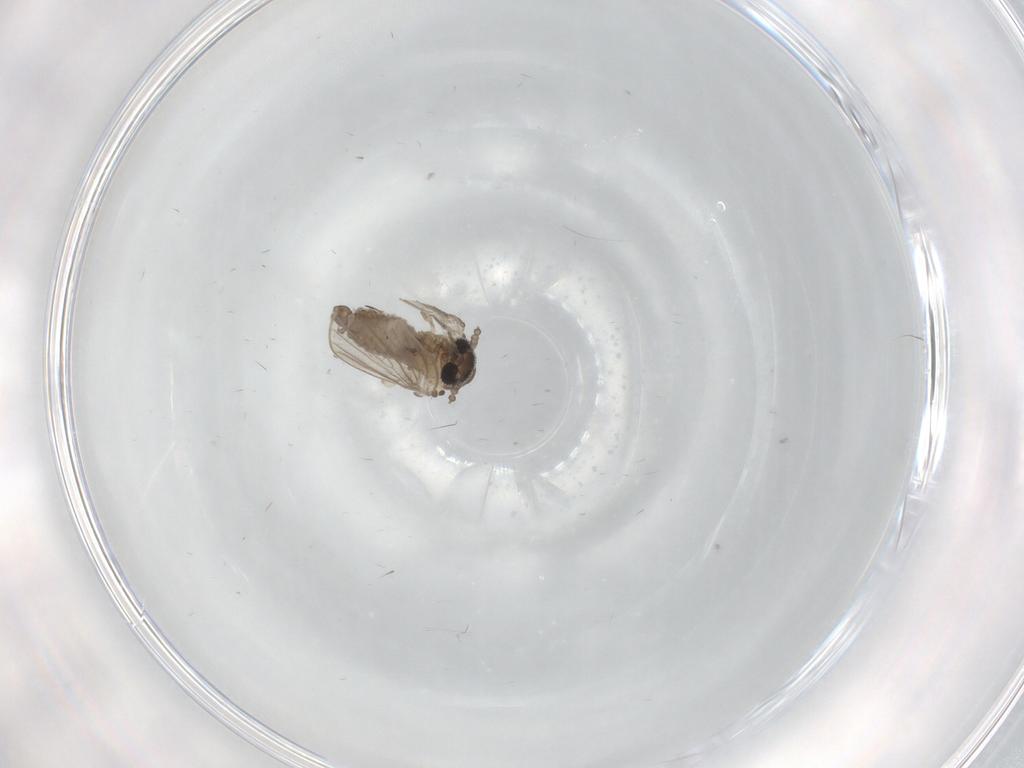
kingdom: Animalia
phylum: Arthropoda
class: Insecta
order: Diptera
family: Psychodidae
